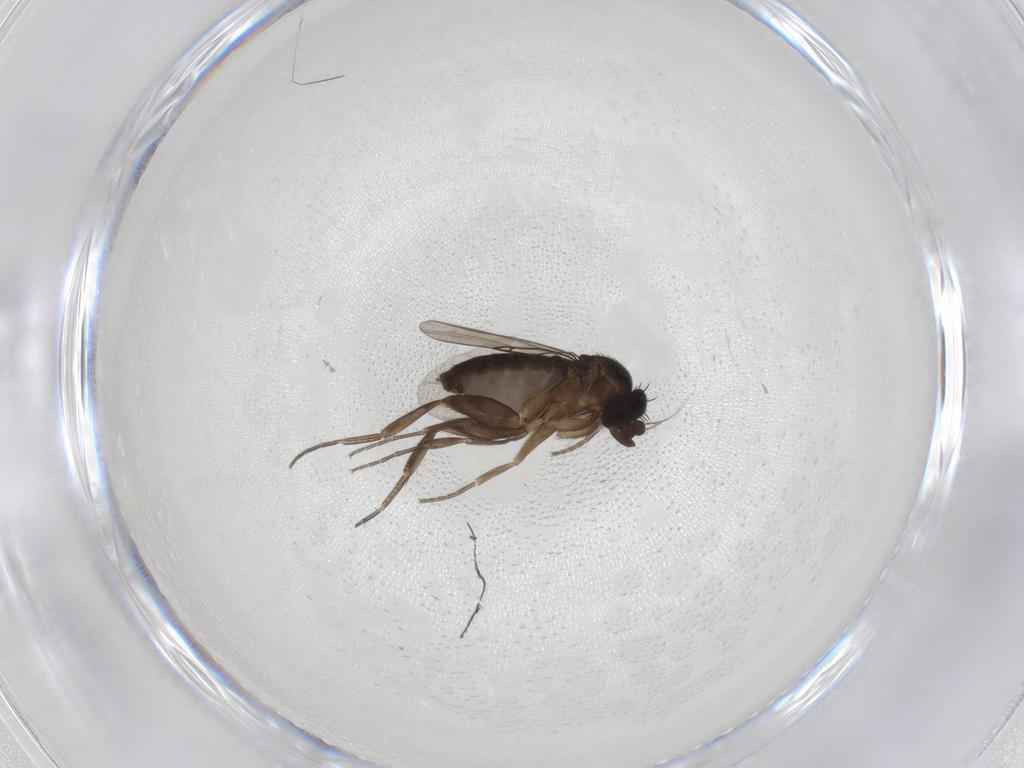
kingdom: Animalia
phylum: Arthropoda
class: Insecta
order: Diptera
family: Phoridae
